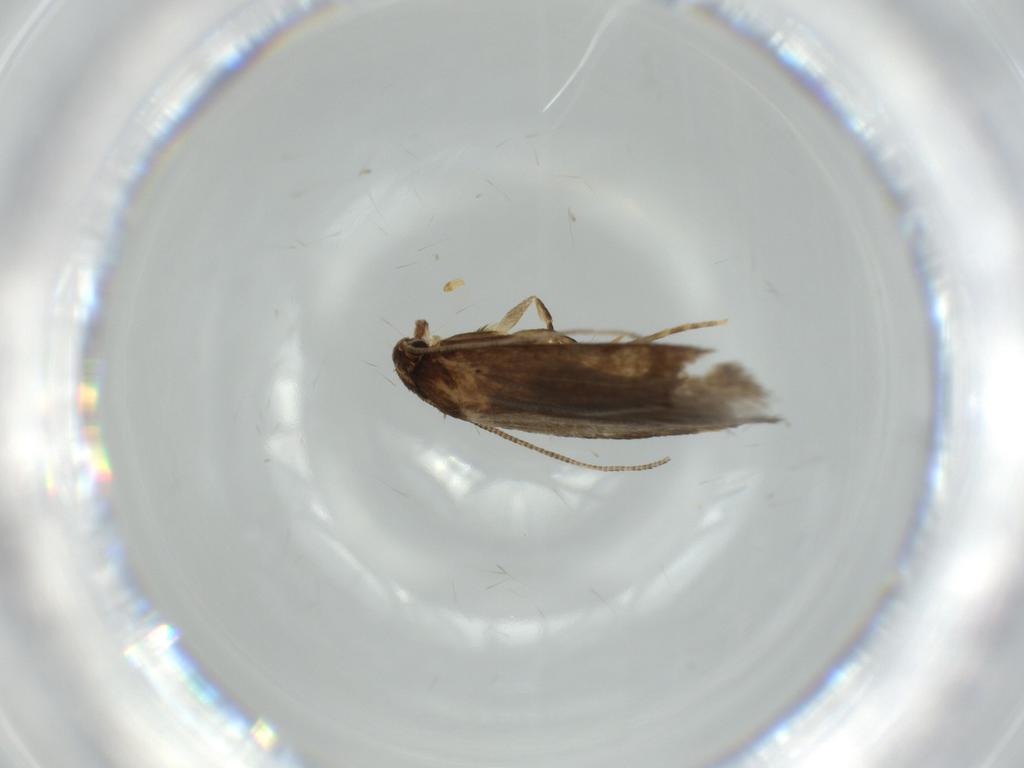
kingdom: Animalia
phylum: Arthropoda
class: Insecta
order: Lepidoptera
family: Tineidae
